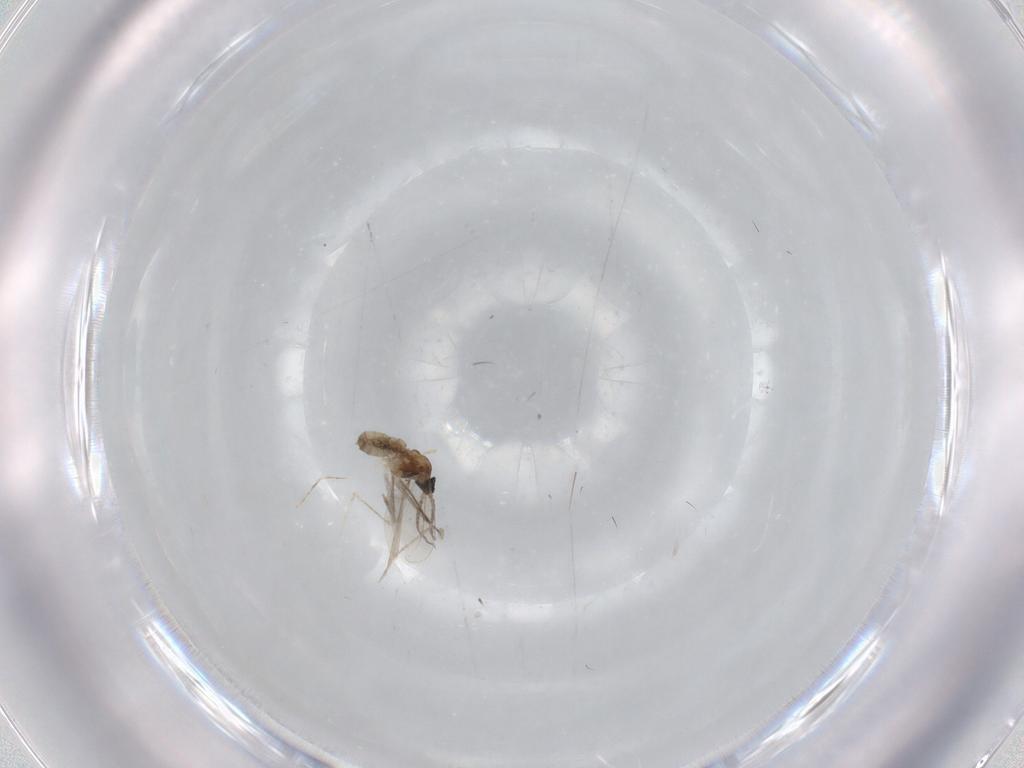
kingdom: Animalia
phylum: Arthropoda
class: Insecta
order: Diptera
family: Cecidomyiidae
